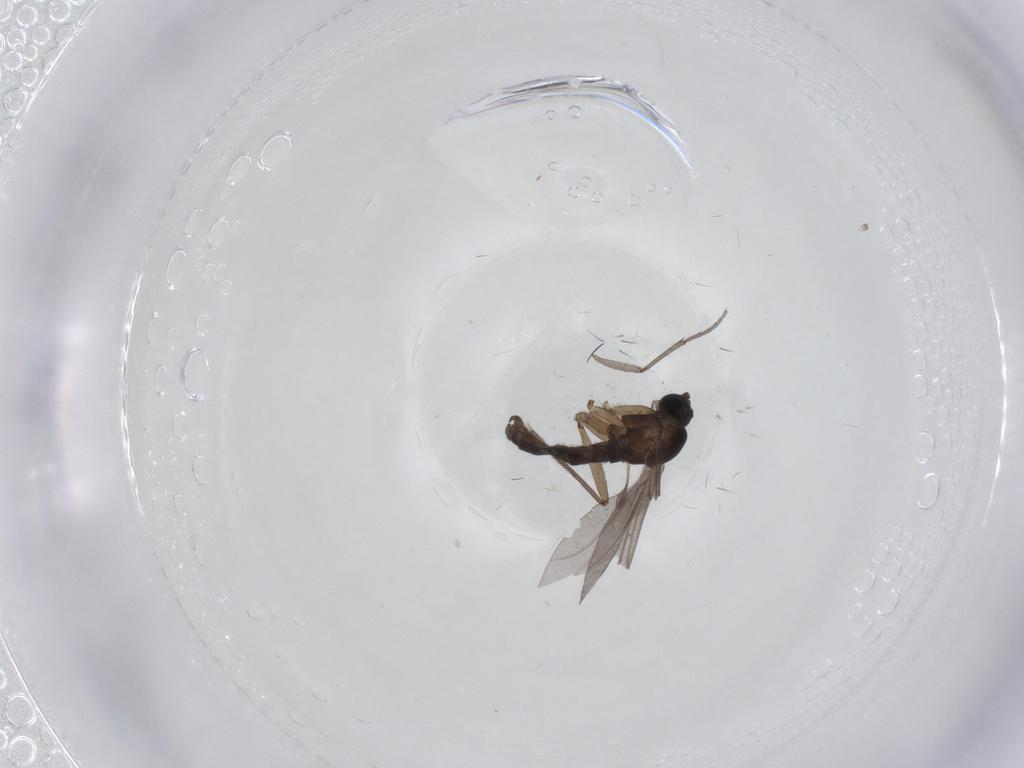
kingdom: Animalia
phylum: Arthropoda
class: Insecta
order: Diptera
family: Sciaridae
